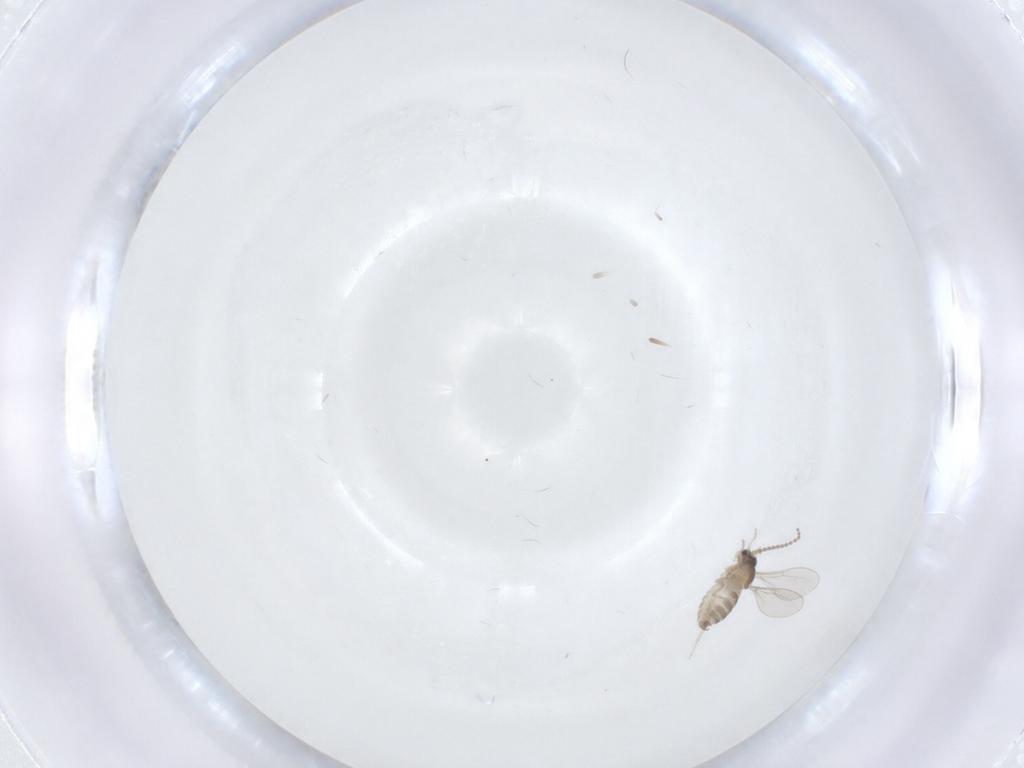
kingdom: Animalia
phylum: Arthropoda
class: Insecta
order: Diptera
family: Cecidomyiidae
